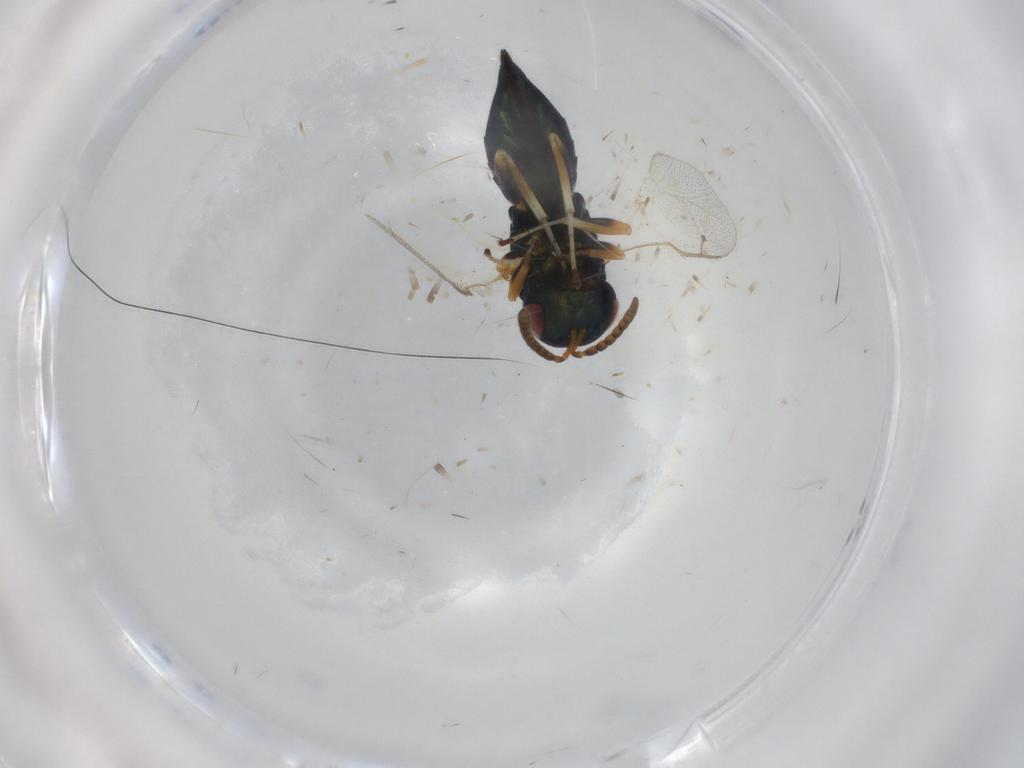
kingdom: Animalia
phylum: Arthropoda
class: Insecta
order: Hymenoptera
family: Pteromalidae
